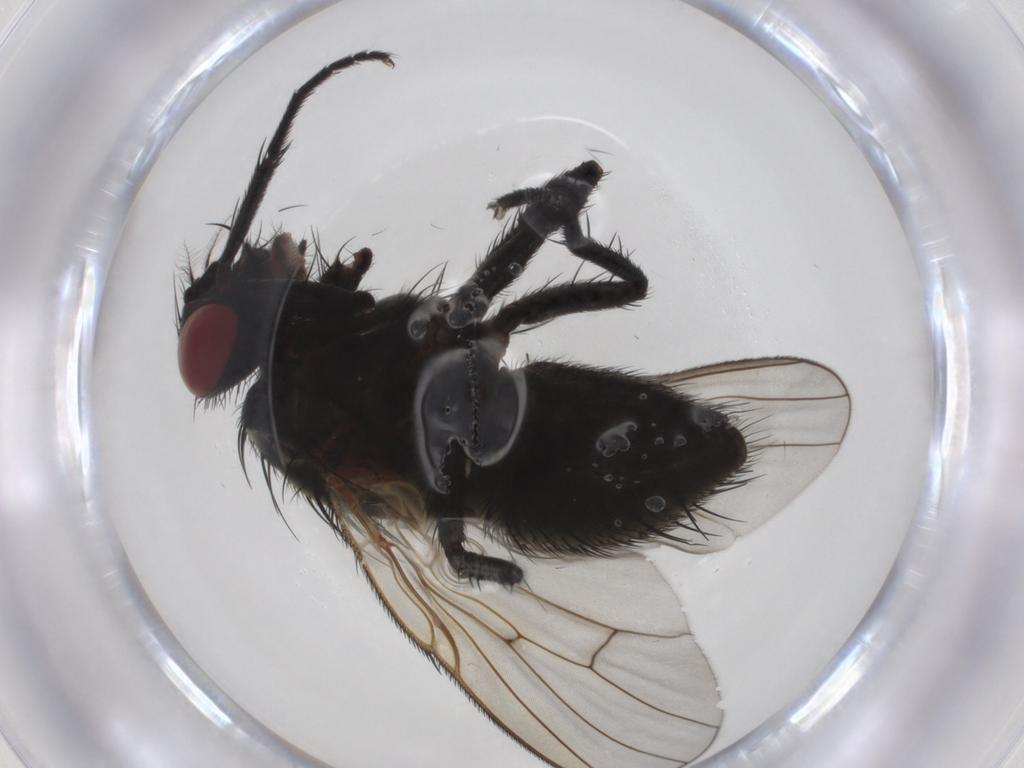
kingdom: Animalia
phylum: Arthropoda
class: Insecta
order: Diptera
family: Muscidae
